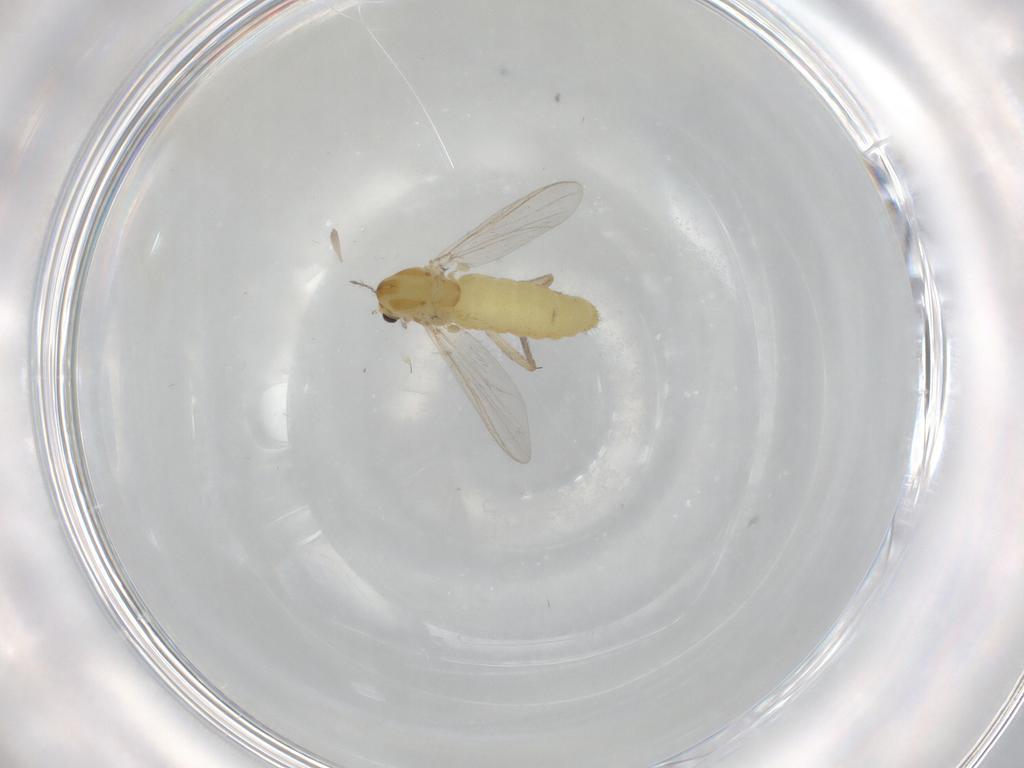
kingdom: Animalia
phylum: Arthropoda
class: Insecta
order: Diptera
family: Chironomidae
